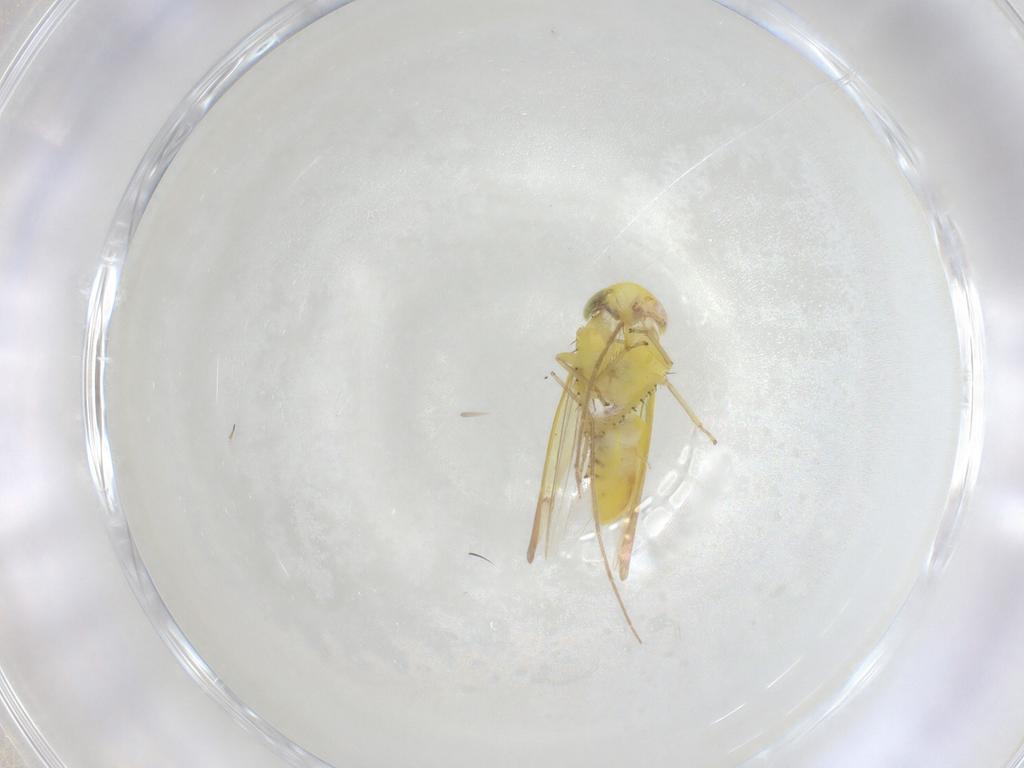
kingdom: Animalia
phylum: Arthropoda
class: Insecta
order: Hemiptera
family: Cicadellidae
